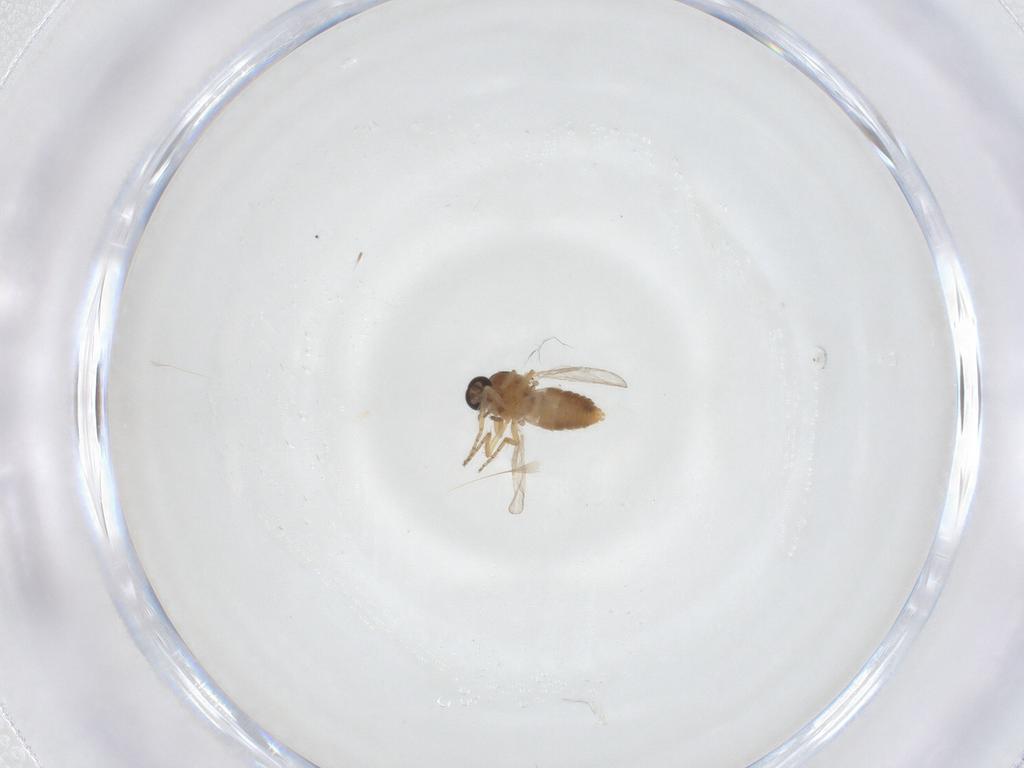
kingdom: Animalia
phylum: Arthropoda
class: Insecta
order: Diptera
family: Ceratopogonidae
